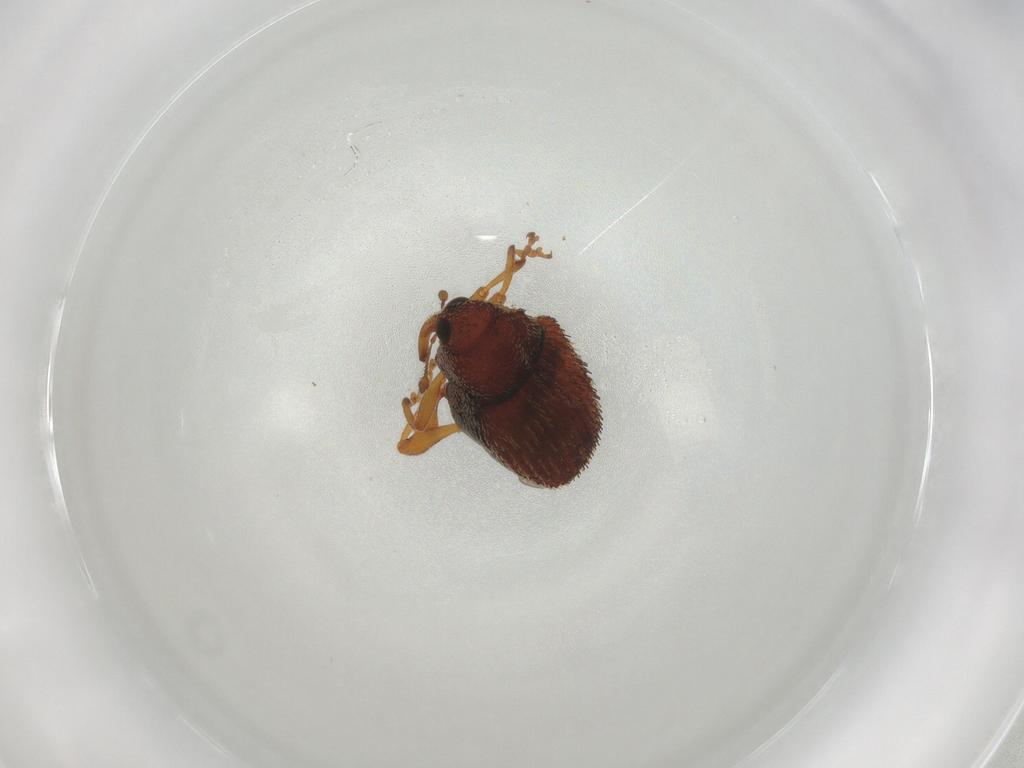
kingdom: Animalia
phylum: Arthropoda
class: Insecta
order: Coleoptera
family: Curculionidae
